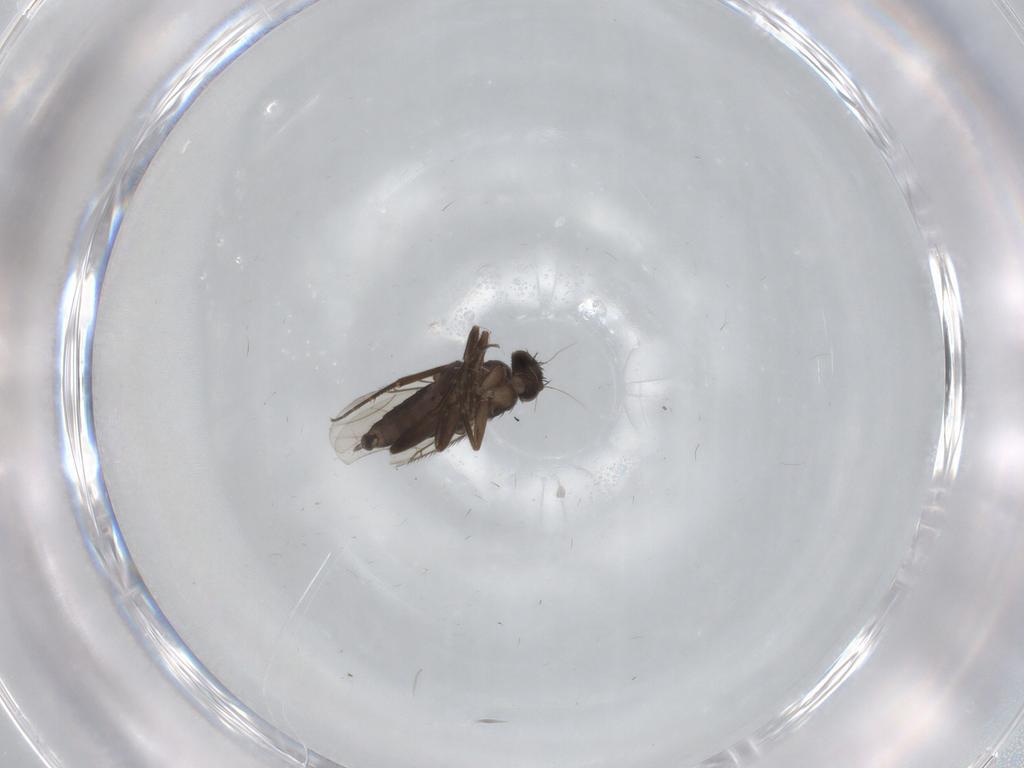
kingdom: Animalia
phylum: Arthropoda
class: Insecta
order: Diptera
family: Phoridae
